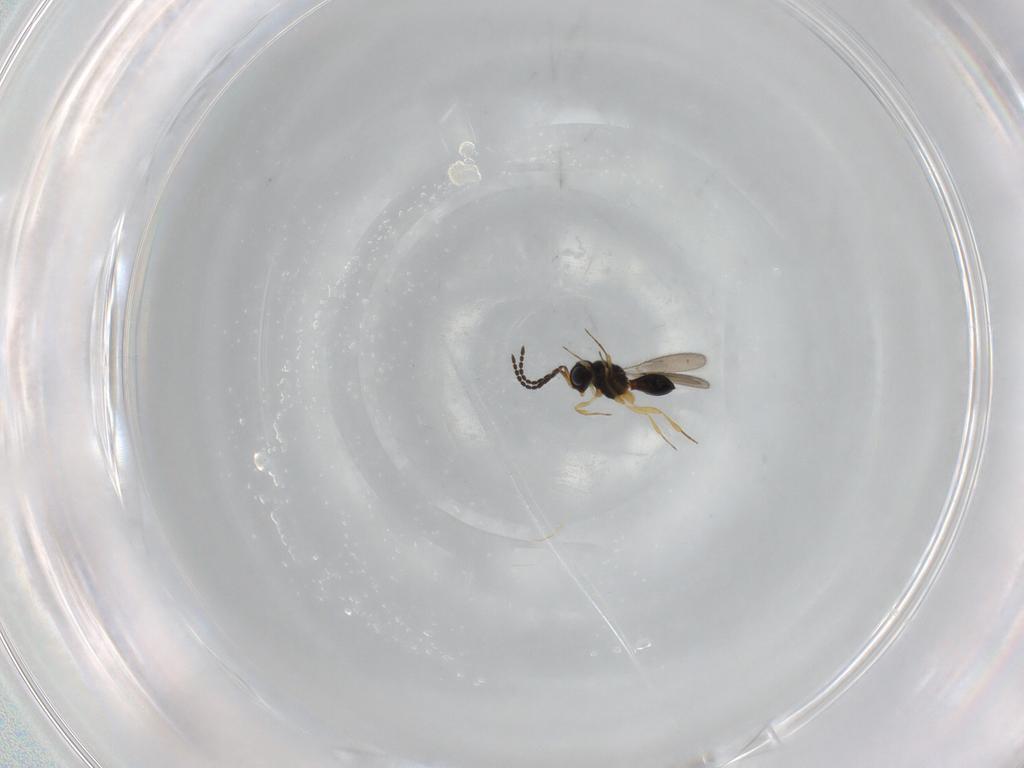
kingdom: Animalia
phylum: Arthropoda
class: Insecta
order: Hymenoptera
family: Scelionidae
